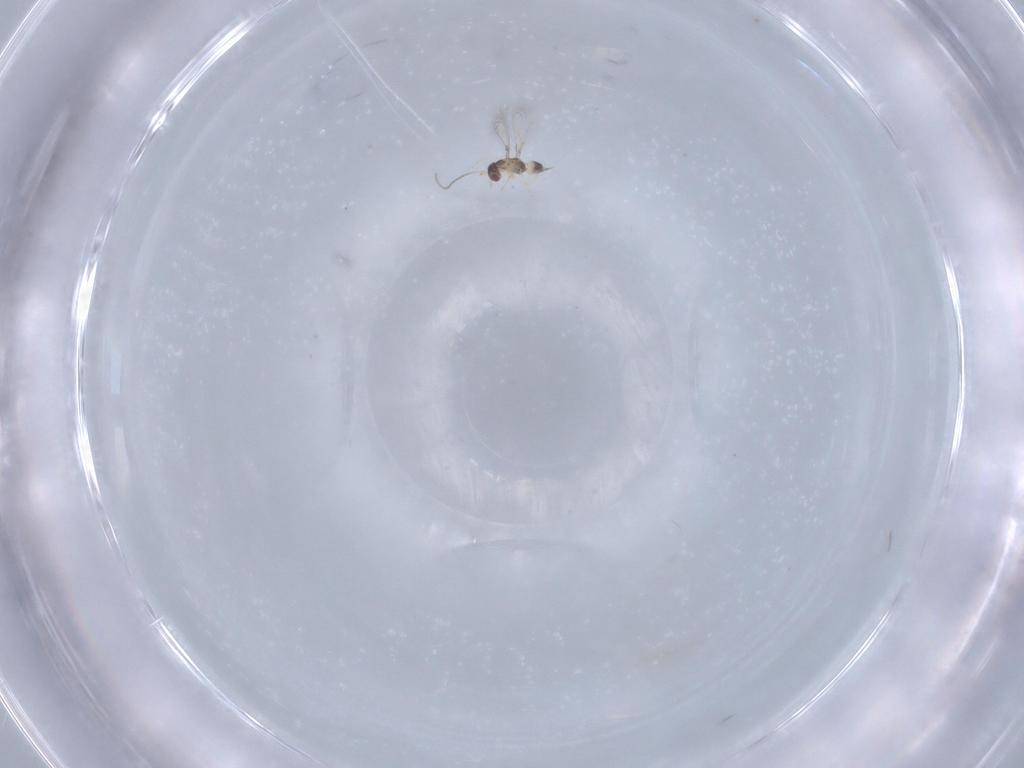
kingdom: Animalia
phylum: Arthropoda
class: Insecta
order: Hymenoptera
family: Mymaridae
